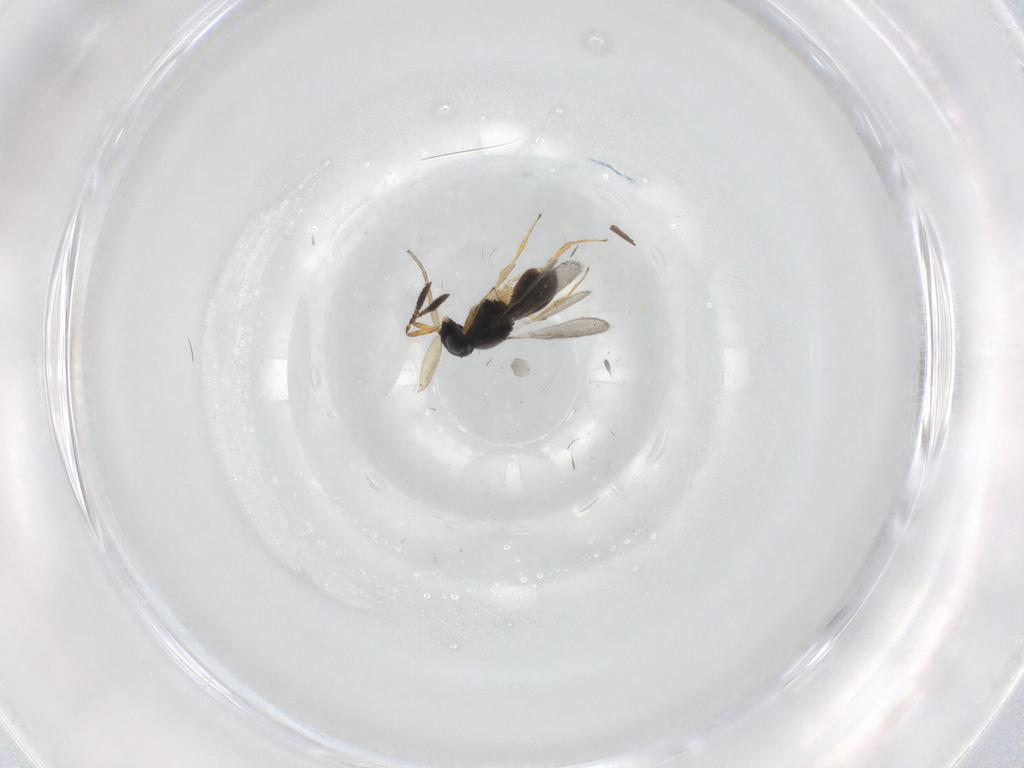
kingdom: Animalia
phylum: Arthropoda
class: Insecta
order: Hymenoptera
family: Scelionidae
